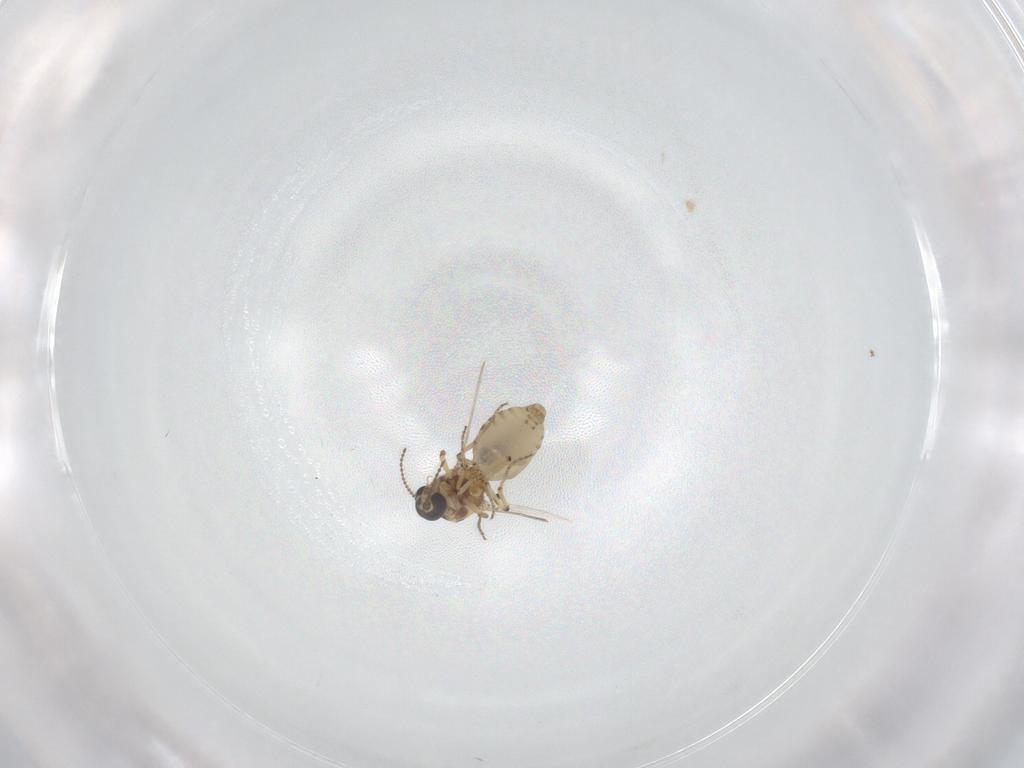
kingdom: Animalia
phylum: Arthropoda
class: Insecta
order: Diptera
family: Ceratopogonidae
